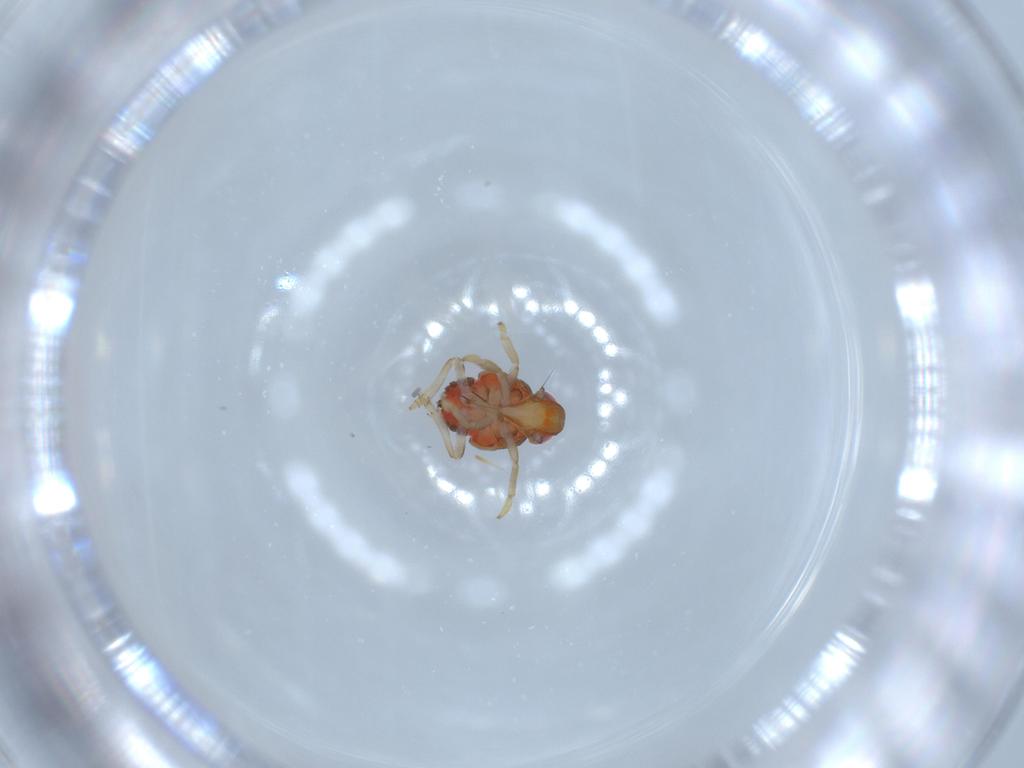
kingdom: Animalia
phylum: Arthropoda
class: Insecta
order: Hemiptera
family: Issidae
